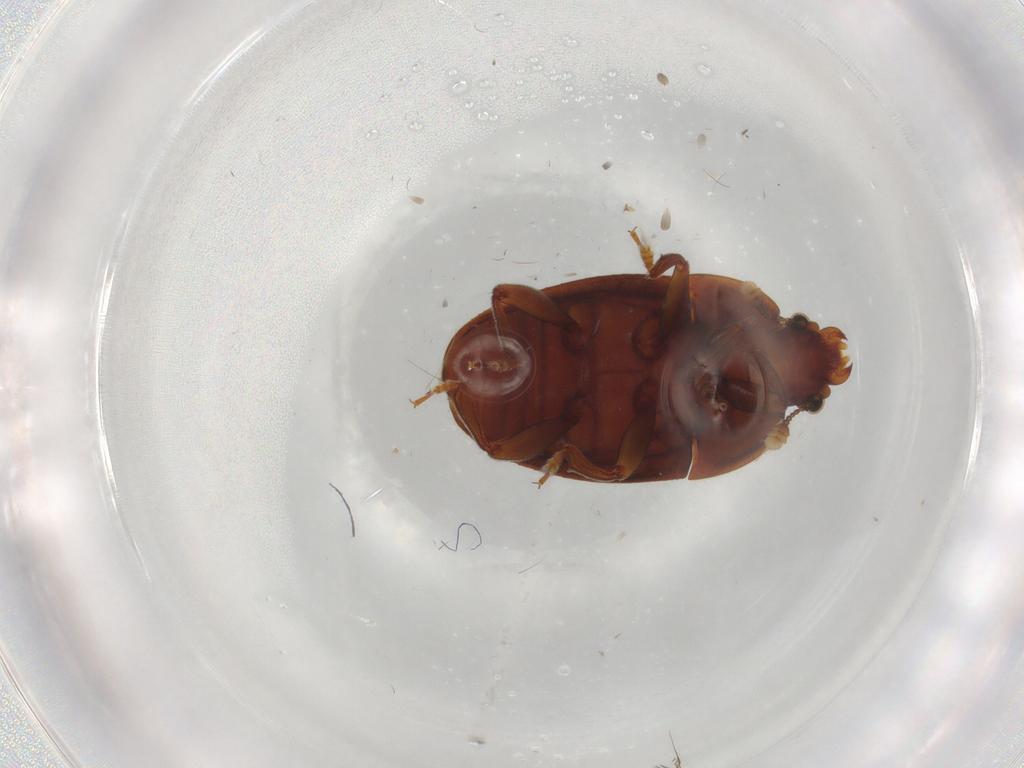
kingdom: Animalia
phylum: Arthropoda
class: Insecta
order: Coleoptera
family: Coccinellidae
